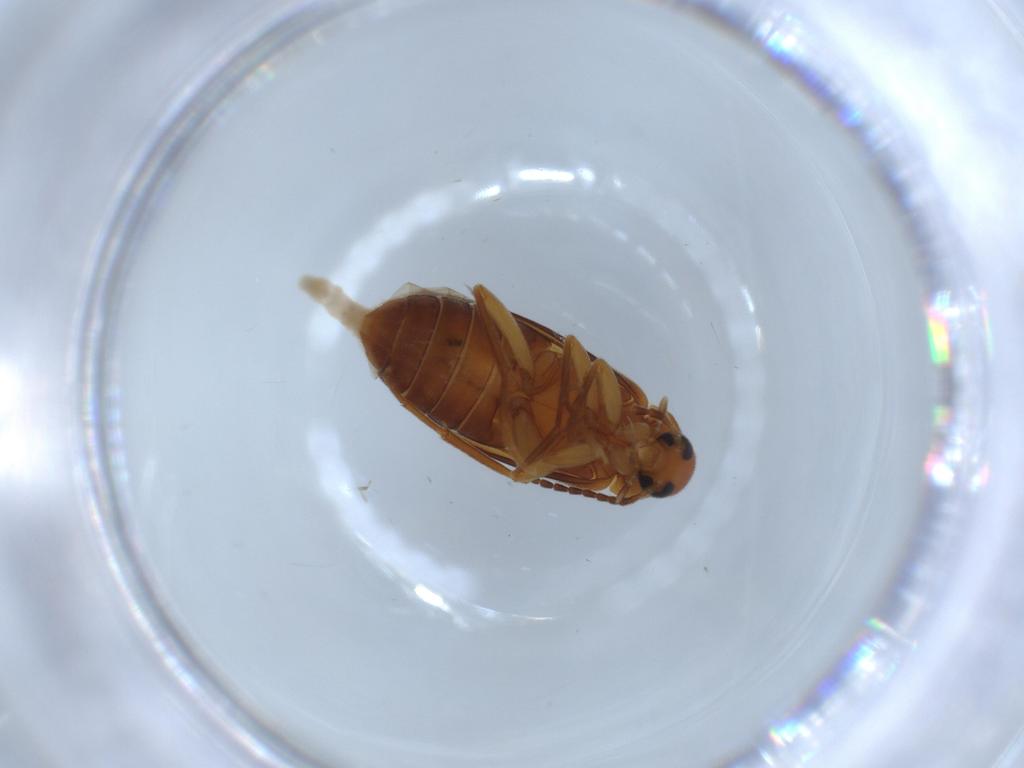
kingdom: Animalia
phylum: Arthropoda
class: Insecta
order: Coleoptera
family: Scraptiidae
